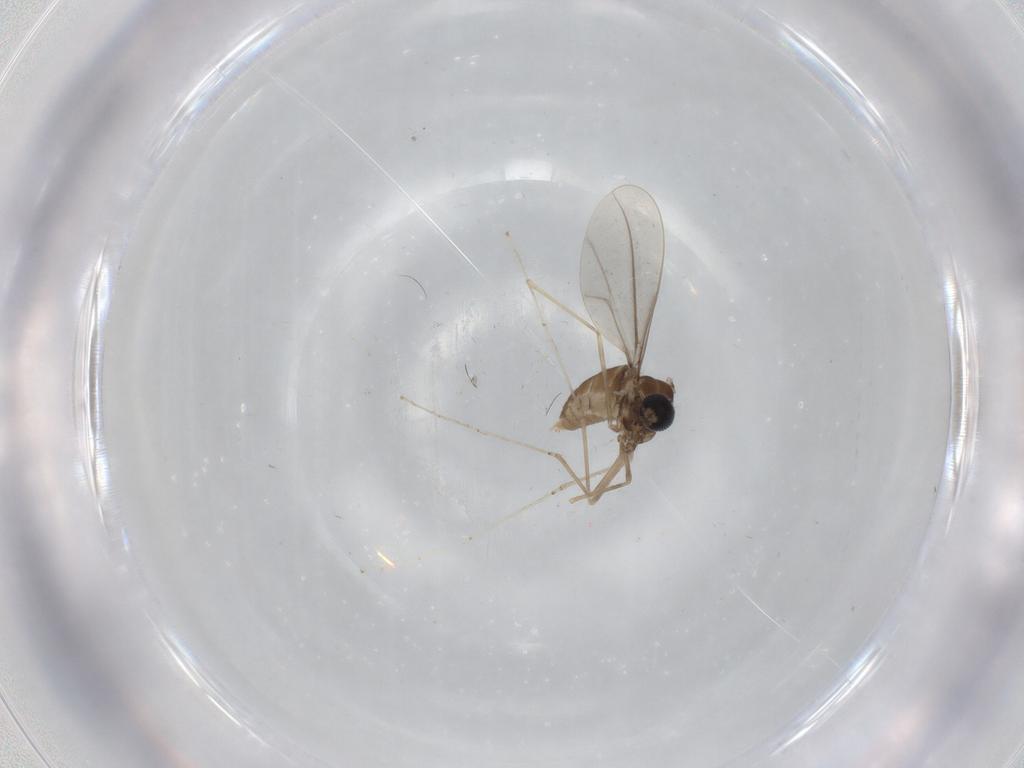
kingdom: Animalia
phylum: Arthropoda
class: Insecta
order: Diptera
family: Cecidomyiidae
